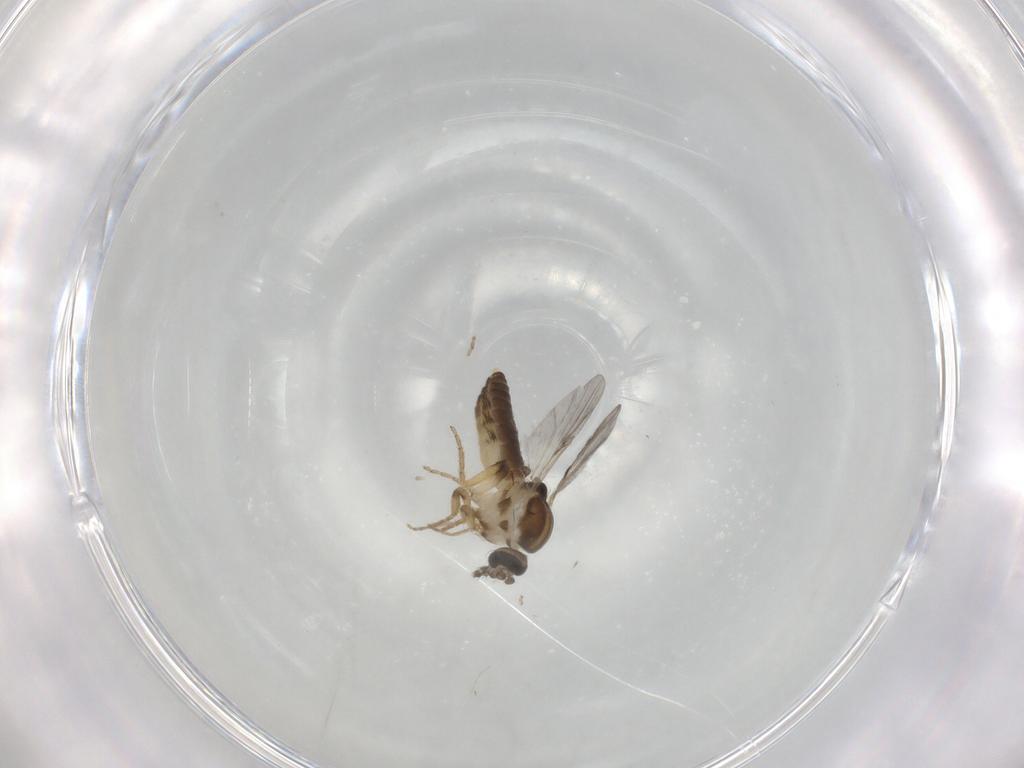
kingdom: Animalia
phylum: Arthropoda
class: Insecta
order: Diptera
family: Ceratopogonidae
